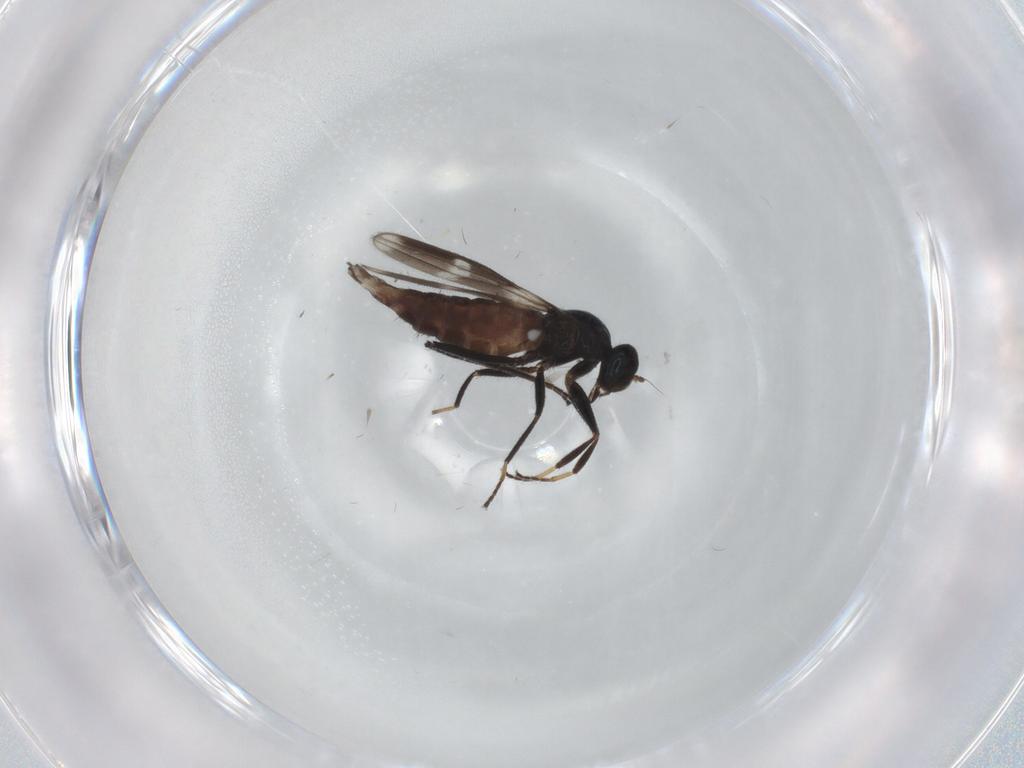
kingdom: Animalia
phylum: Arthropoda
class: Insecta
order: Diptera
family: Hybotidae
